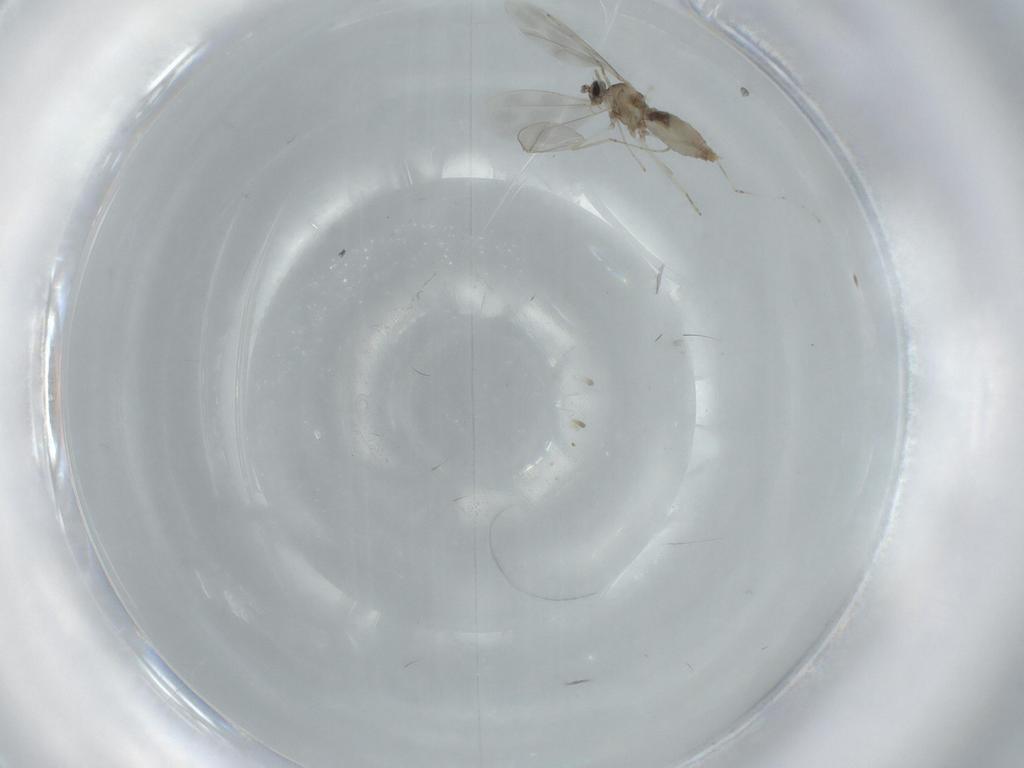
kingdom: Animalia
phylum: Arthropoda
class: Insecta
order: Diptera
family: Cecidomyiidae
